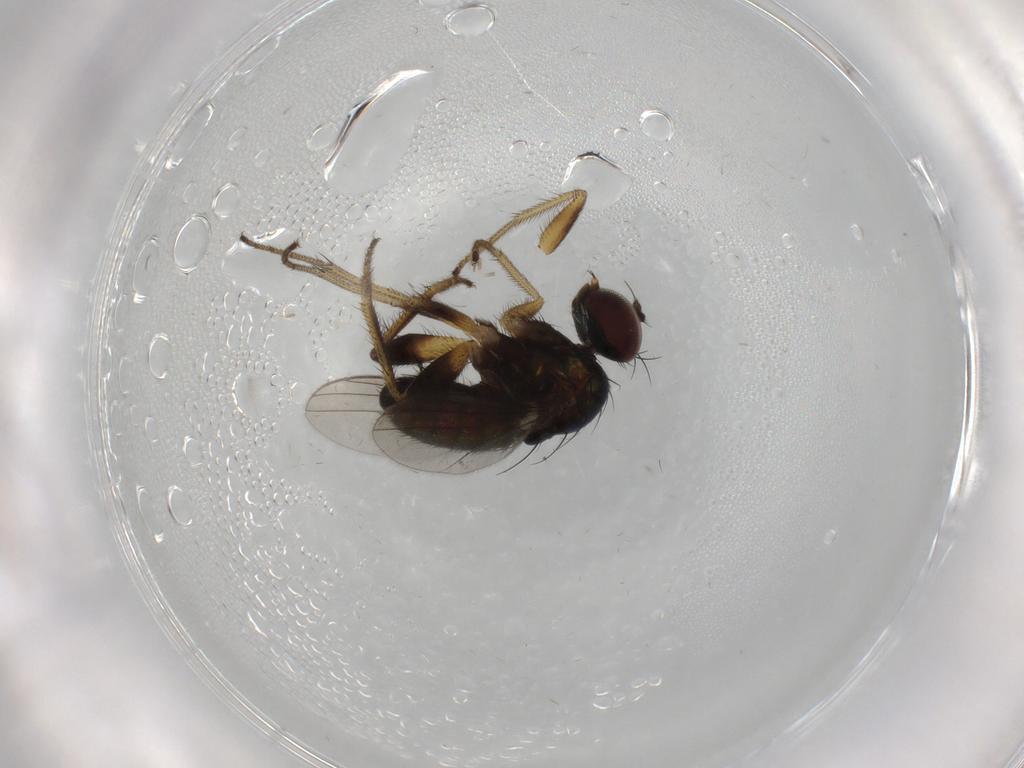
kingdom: Animalia
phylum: Arthropoda
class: Insecta
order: Diptera
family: Dolichopodidae
